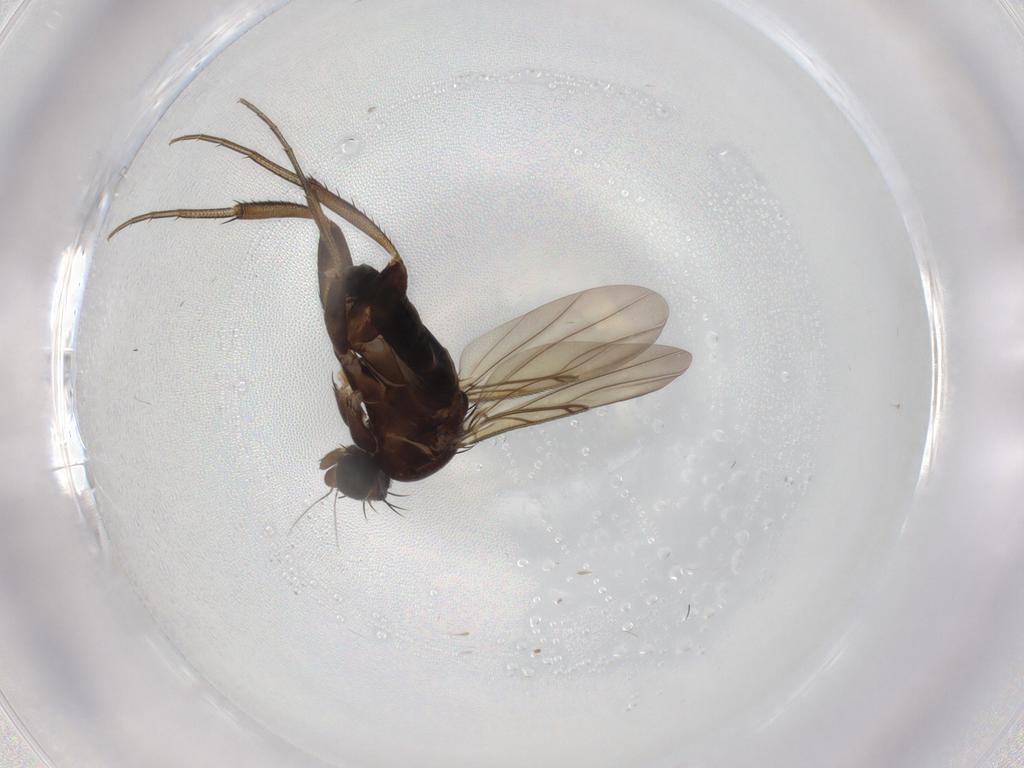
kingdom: Animalia
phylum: Arthropoda
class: Insecta
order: Diptera
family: Phoridae
